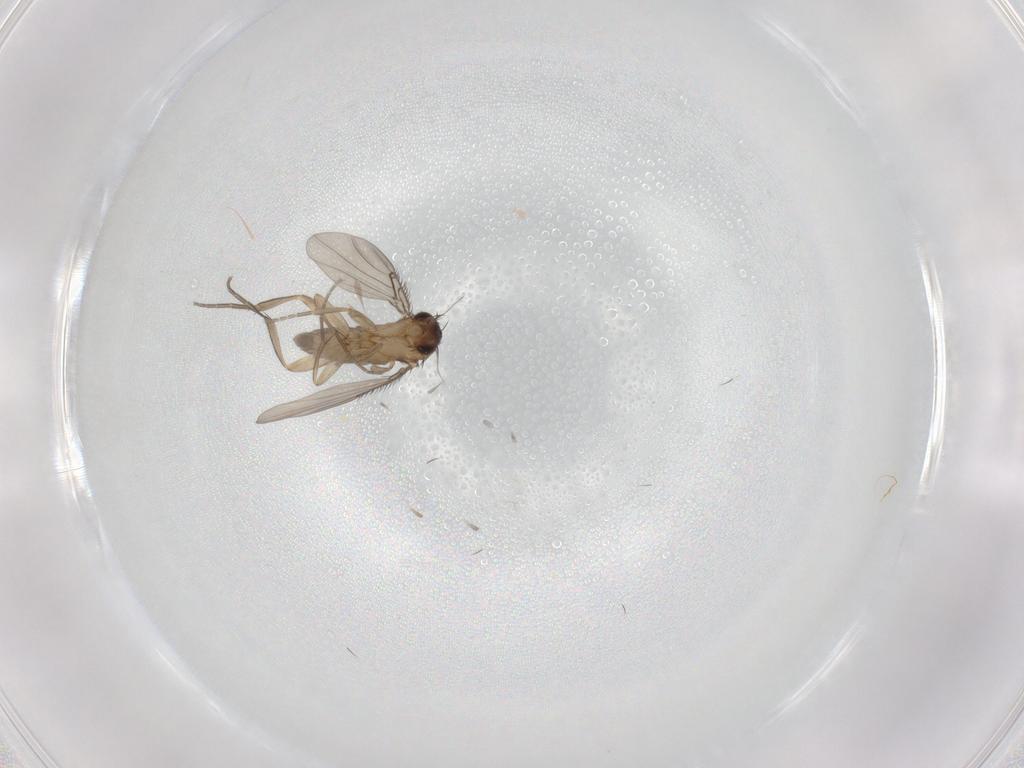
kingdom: Animalia
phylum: Arthropoda
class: Insecta
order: Diptera
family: Phoridae
